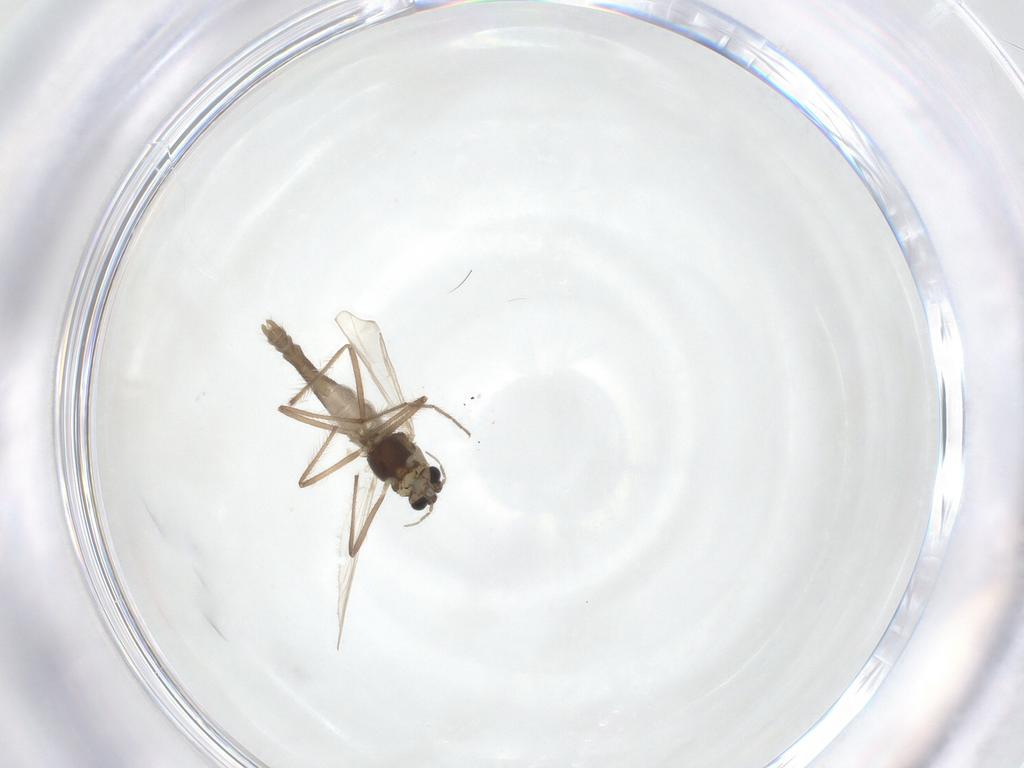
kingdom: Animalia
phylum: Arthropoda
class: Insecta
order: Diptera
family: Chironomidae
